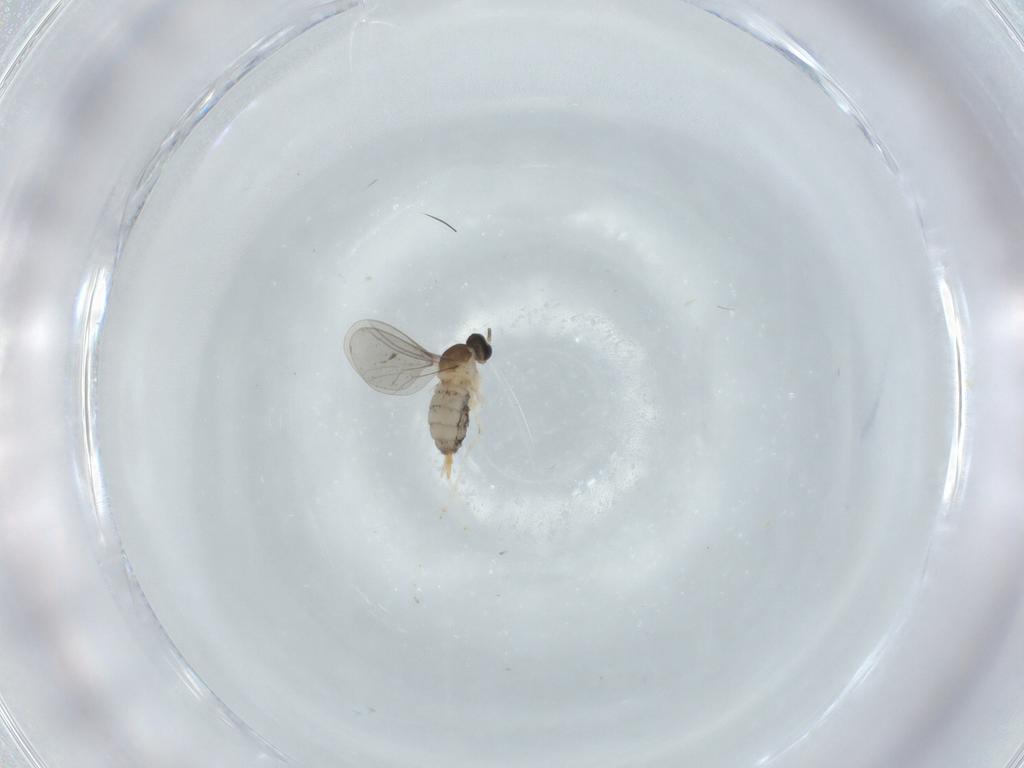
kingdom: Animalia
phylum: Arthropoda
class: Insecta
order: Diptera
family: Cecidomyiidae
